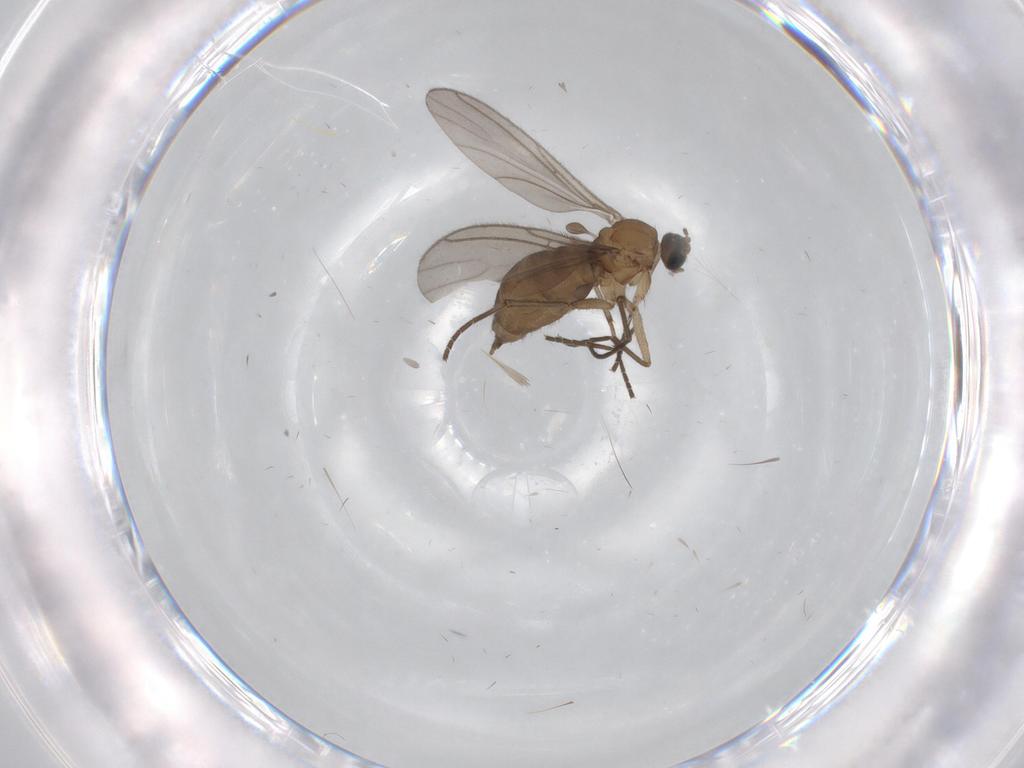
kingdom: Animalia
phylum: Arthropoda
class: Insecta
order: Diptera
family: Sciaridae
